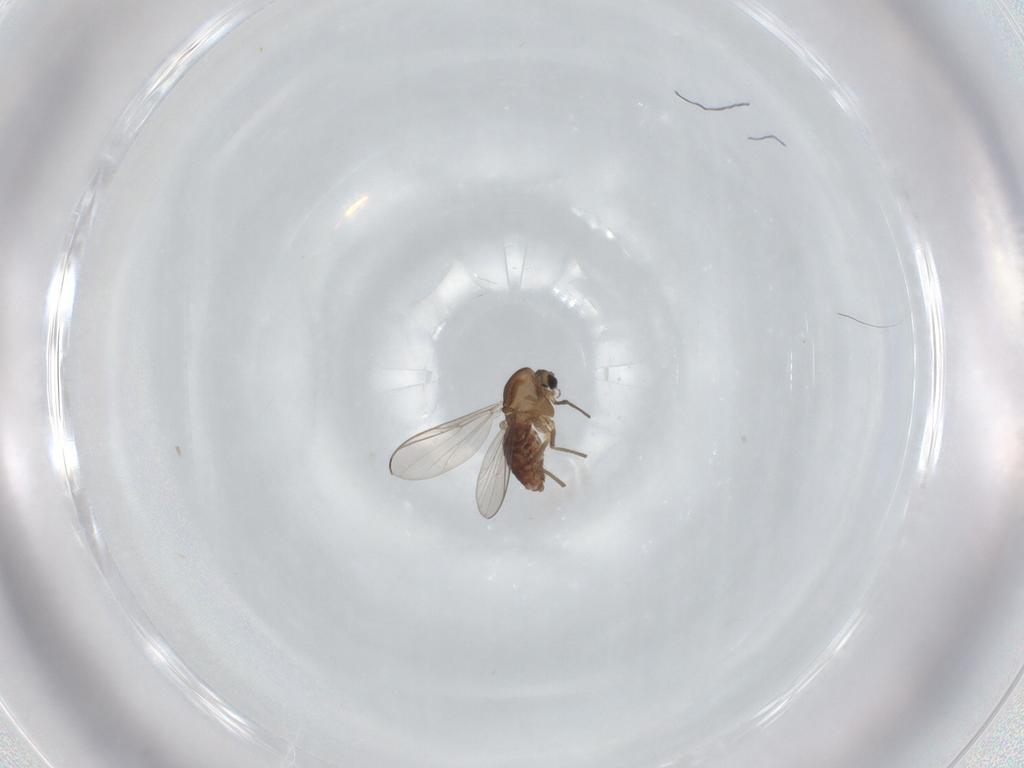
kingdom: Animalia
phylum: Arthropoda
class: Insecta
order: Diptera
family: Chironomidae
